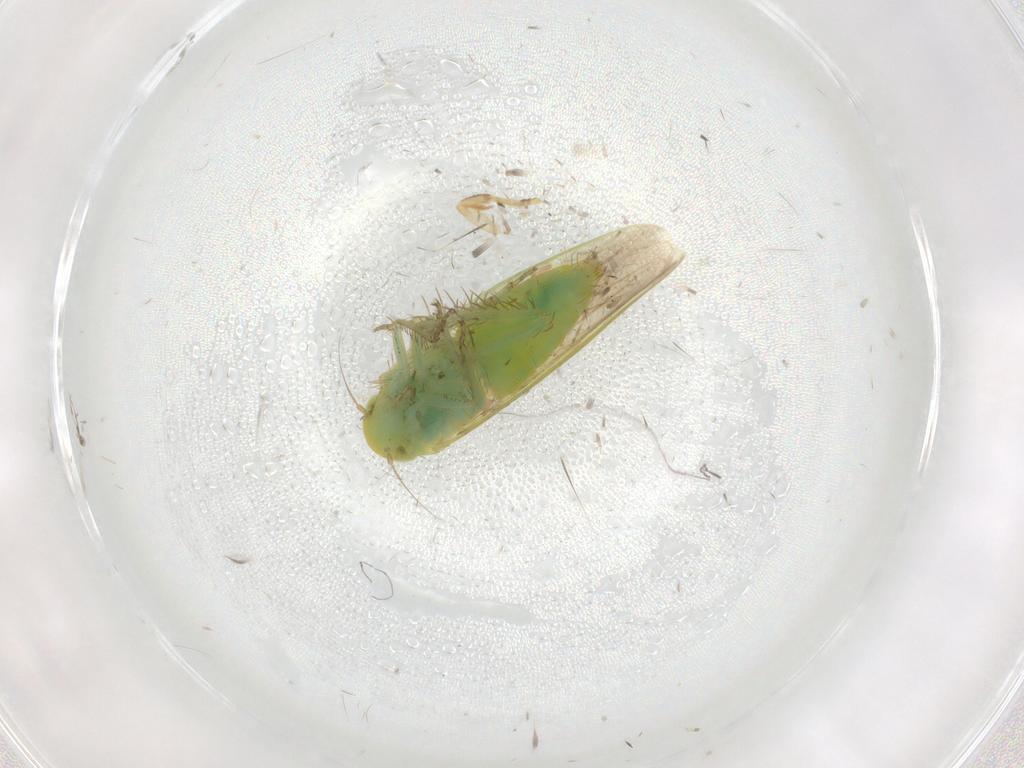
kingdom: Animalia
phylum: Arthropoda
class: Insecta
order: Hemiptera
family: Cicadellidae
